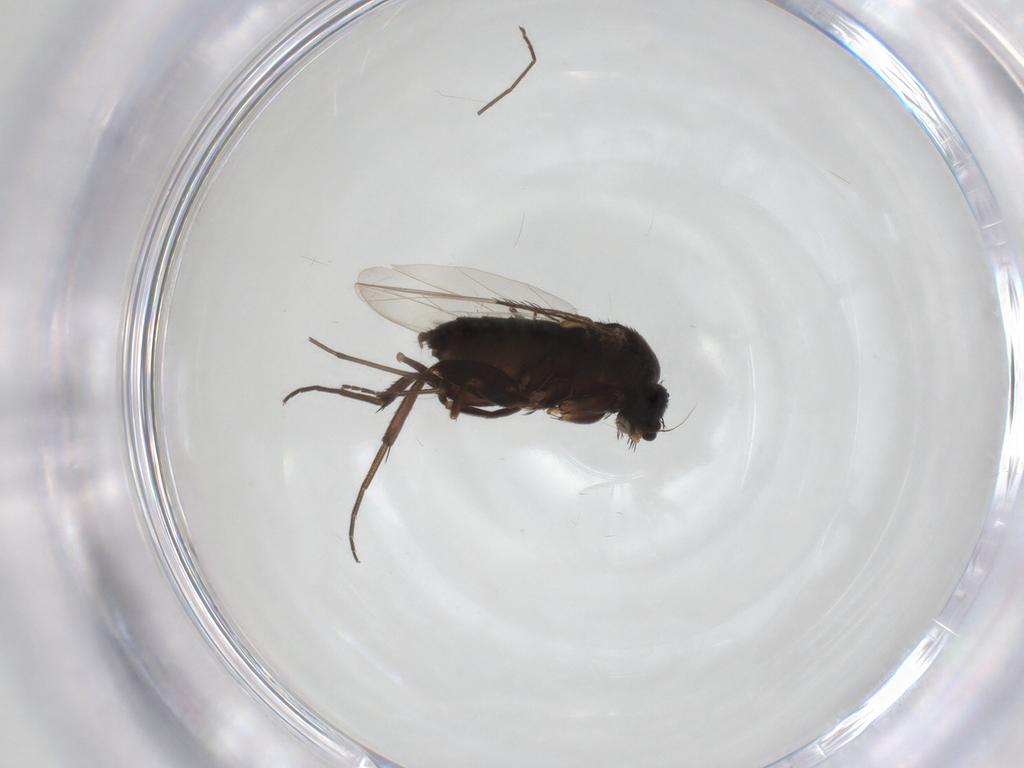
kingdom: Animalia
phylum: Arthropoda
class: Insecta
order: Diptera
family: Phoridae
